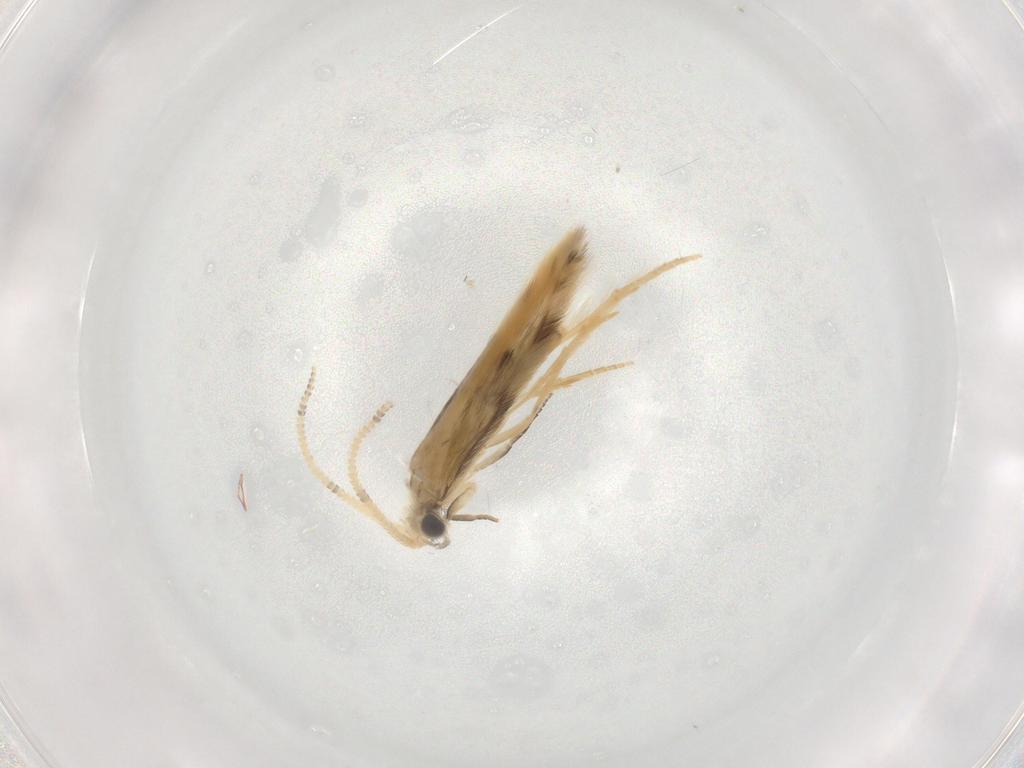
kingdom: Animalia
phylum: Arthropoda
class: Insecta
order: Trichoptera
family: Hydroptilidae
